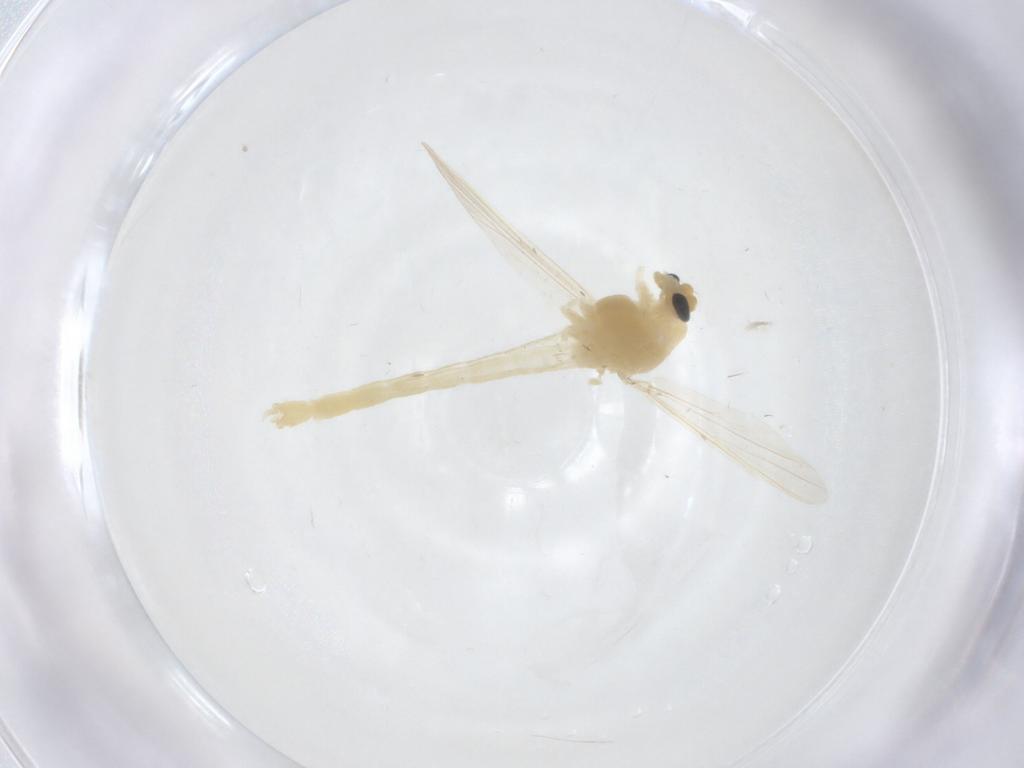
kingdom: Animalia
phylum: Arthropoda
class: Insecta
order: Diptera
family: Chironomidae
